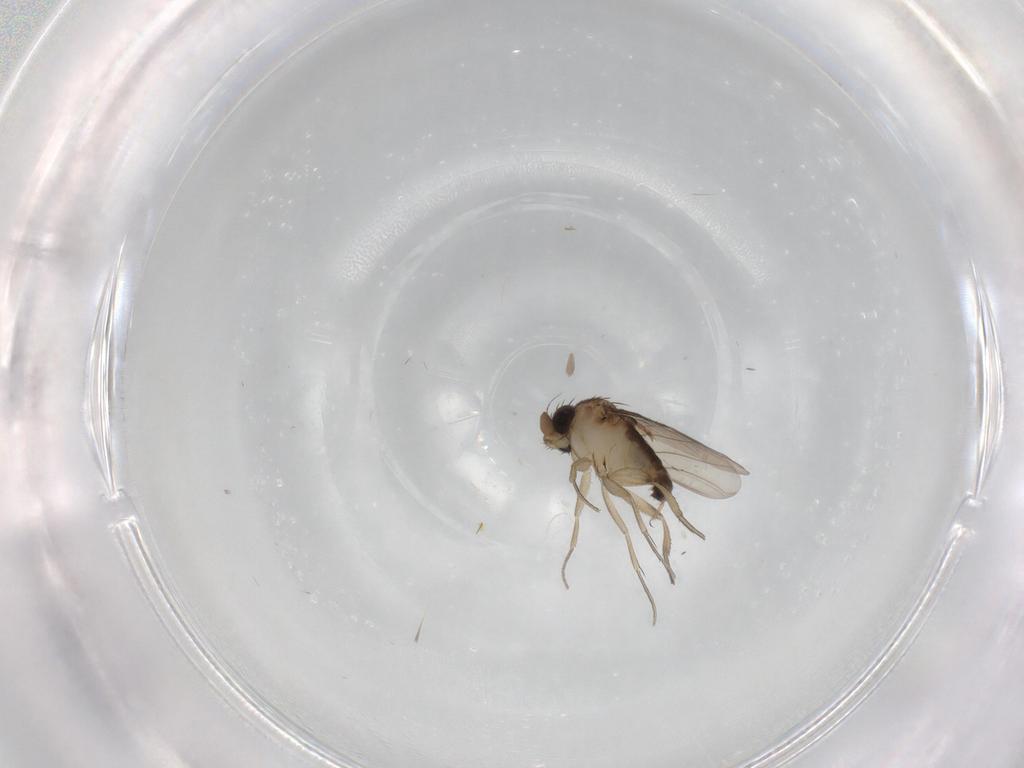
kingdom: Animalia
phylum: Arthropoda
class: Insecta
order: Diptera
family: Phoridae
